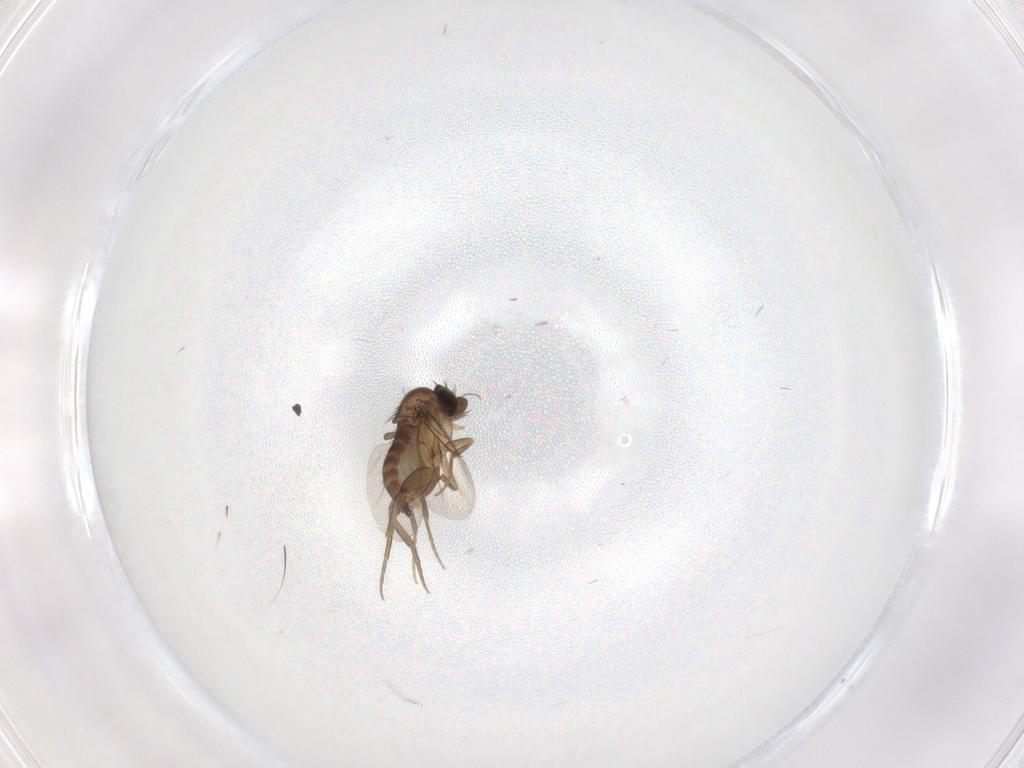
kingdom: Animalia
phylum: Arthropoda
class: Insecta
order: Diptera
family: Phoridae
